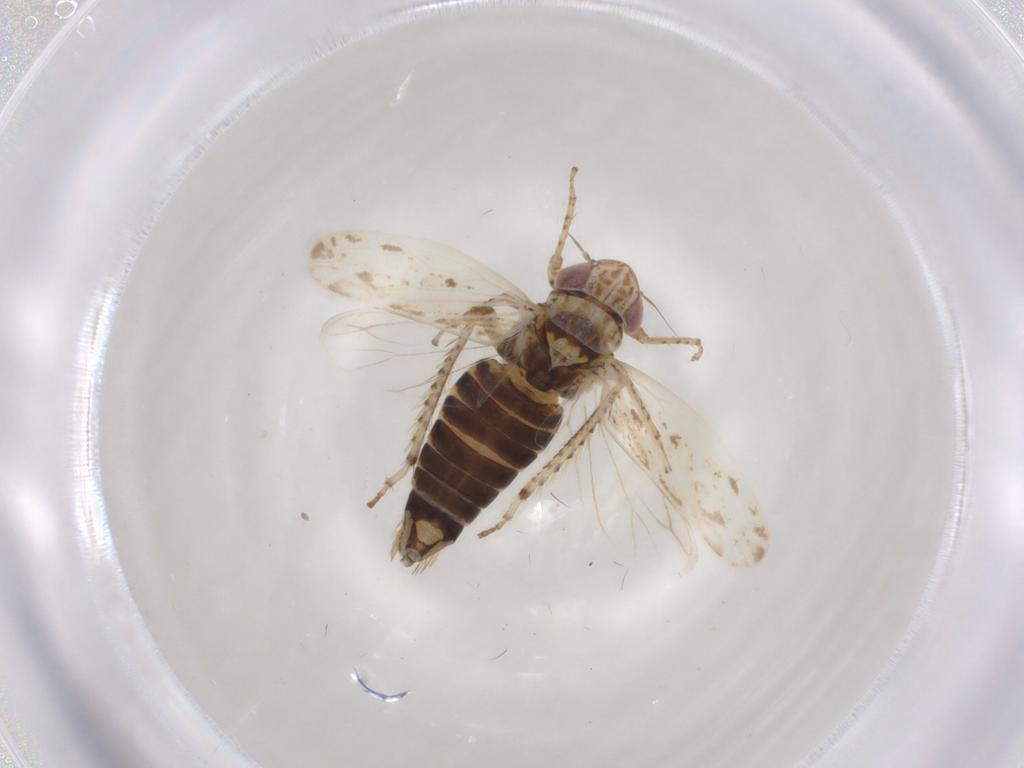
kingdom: Animalia
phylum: Arthropoda
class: Insecta
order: Hemiptera
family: Cicadellidae
